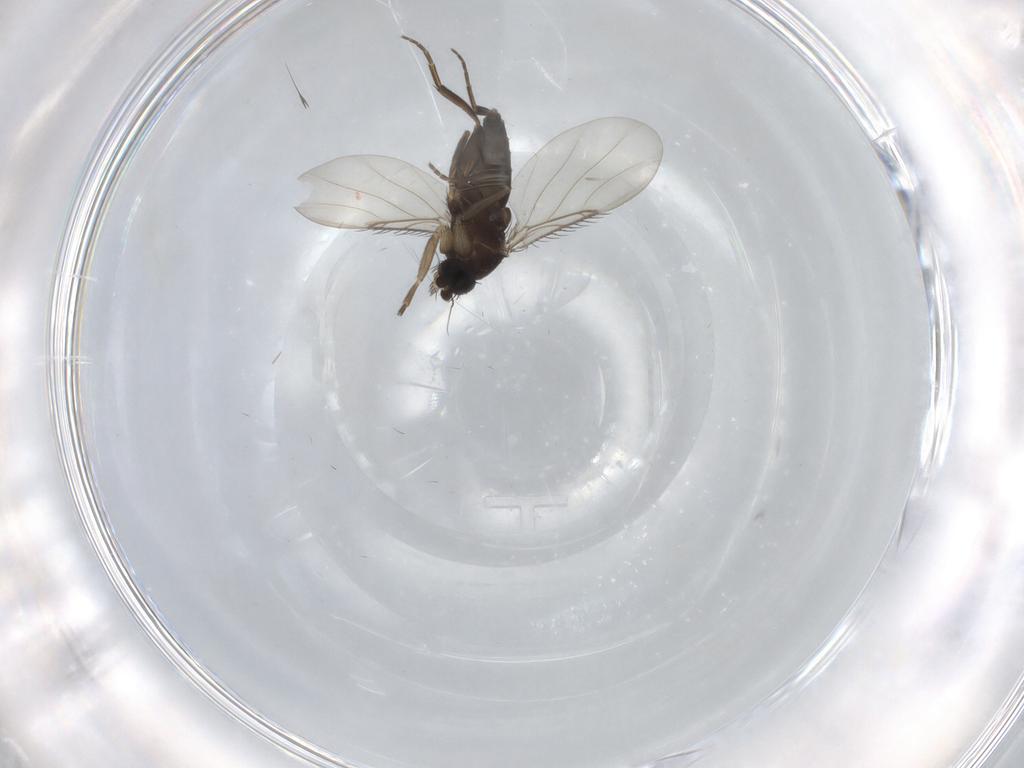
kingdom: Animalia
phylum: Arthropoda
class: Insecta
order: Diptera
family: Phoridae
